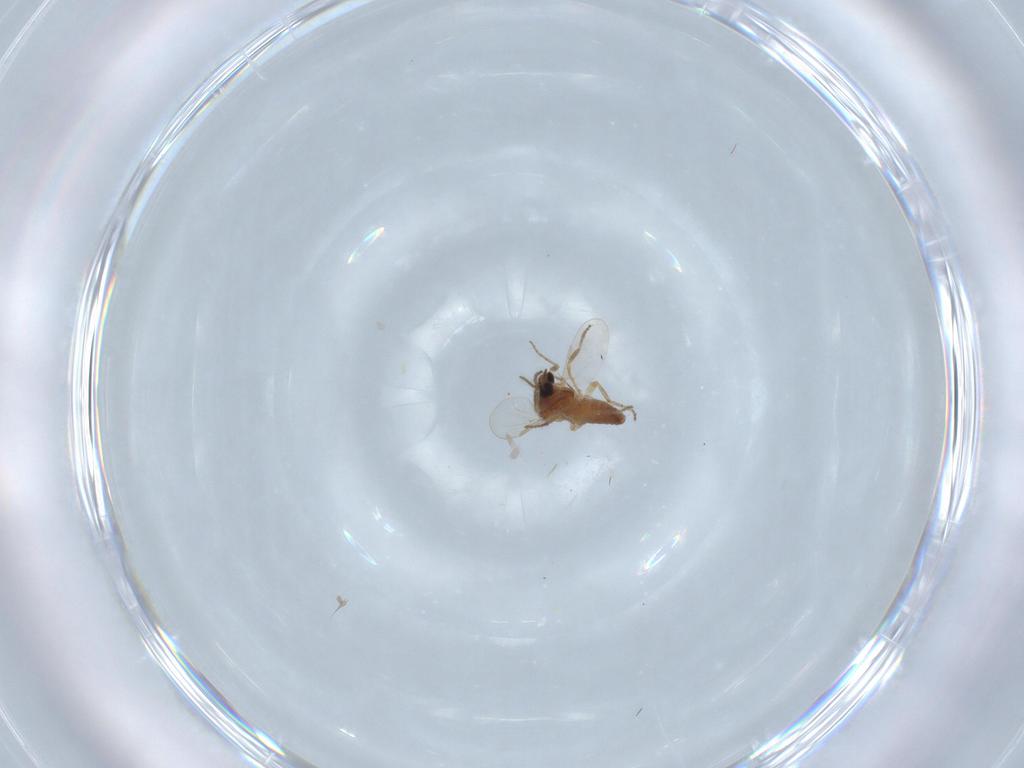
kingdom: Animalia
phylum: Arthropoda
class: Insecta
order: Diptera
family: Ceratopogonidae
